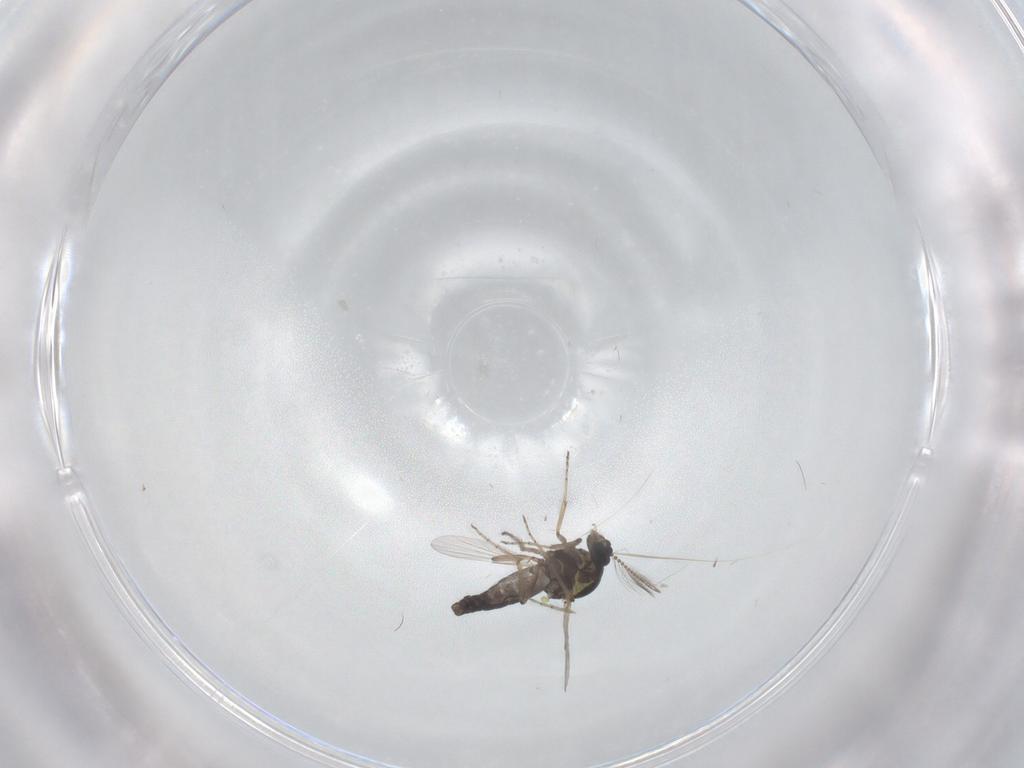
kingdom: Animalia
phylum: Arthropoda
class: Insecta
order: Diptera
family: Ceratopogonidae
